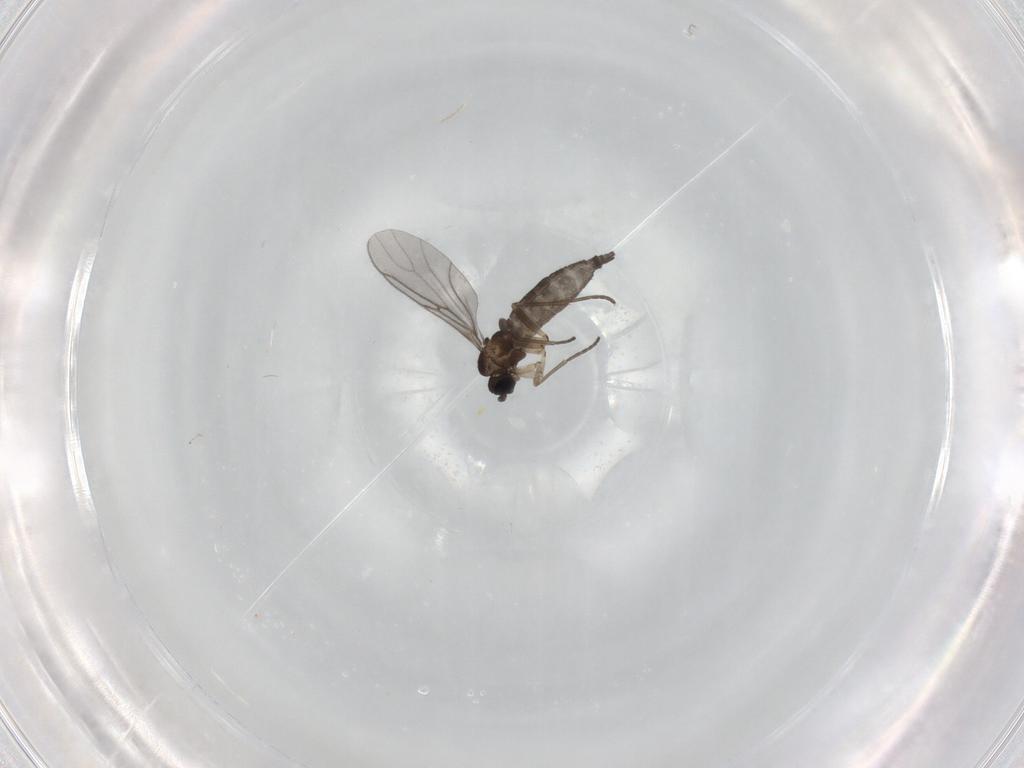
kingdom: Animalia
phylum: Arthropoda
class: Insecta
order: Diptera
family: Sciaridae
